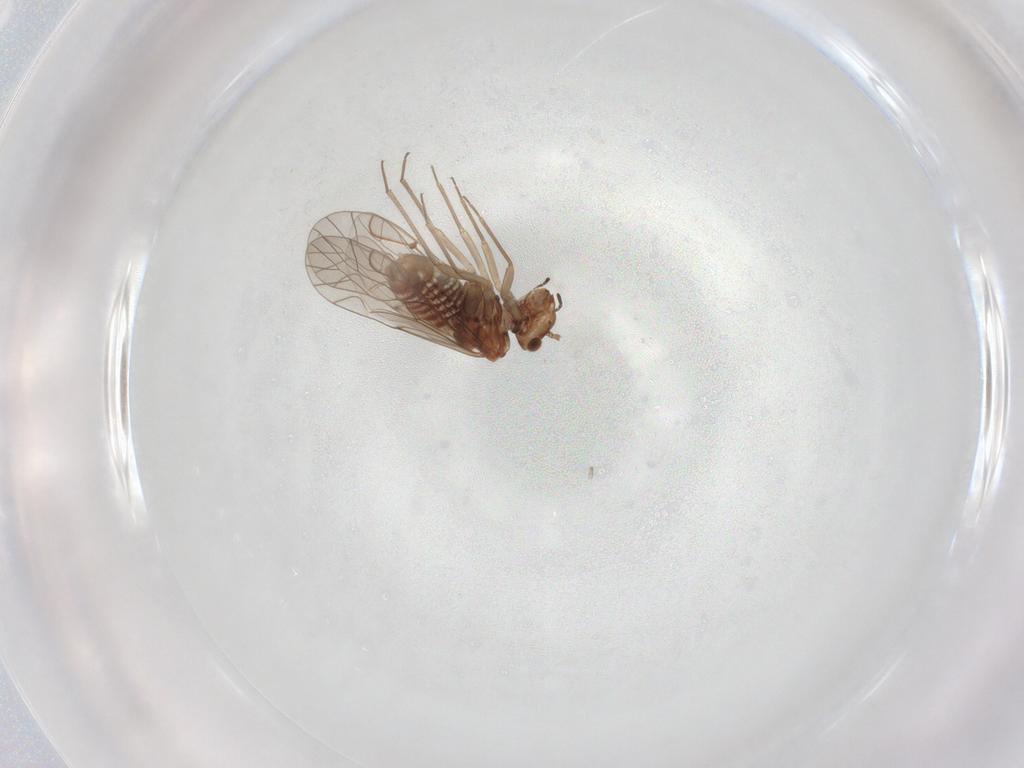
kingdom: Animalia
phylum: Arthropoda
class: Insecta
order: Psocodea
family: Lachesillidae
